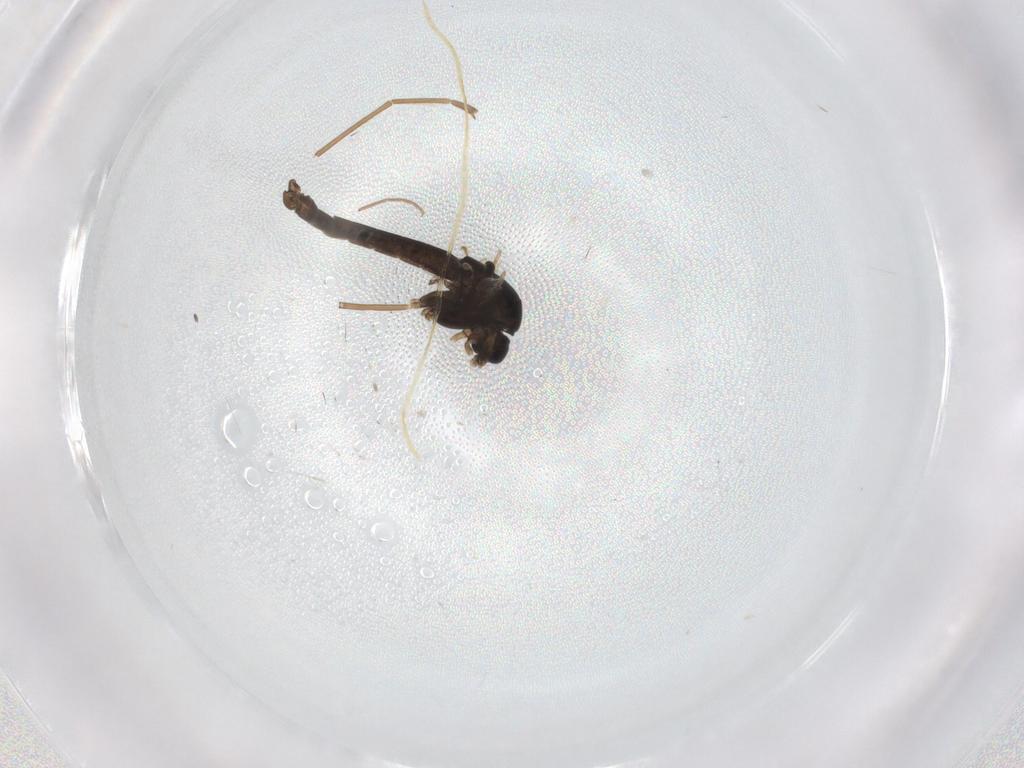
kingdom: Animalia
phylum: Arthropoda
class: Insecta
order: Diptera
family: Chironomidae
